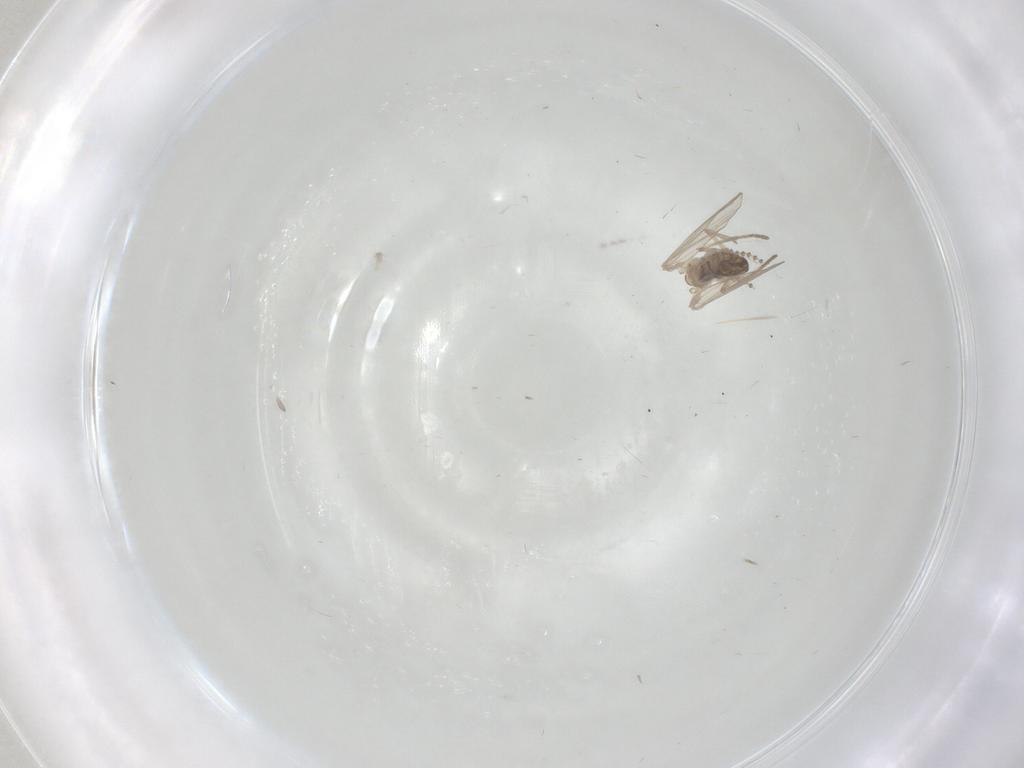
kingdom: Animalia
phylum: Arthropoda
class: Insecta
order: Diptera
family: Psychodidae
